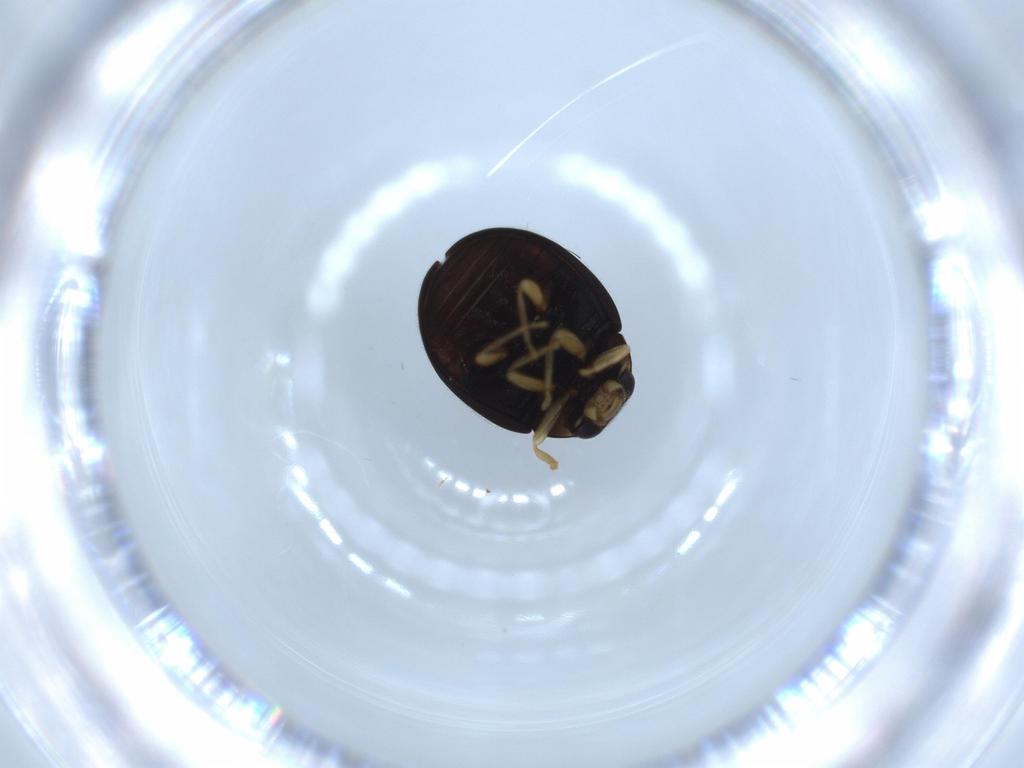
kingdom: Animalia
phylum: Arthropoda
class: Insecta
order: Coleoptera
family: Coccinellidae
